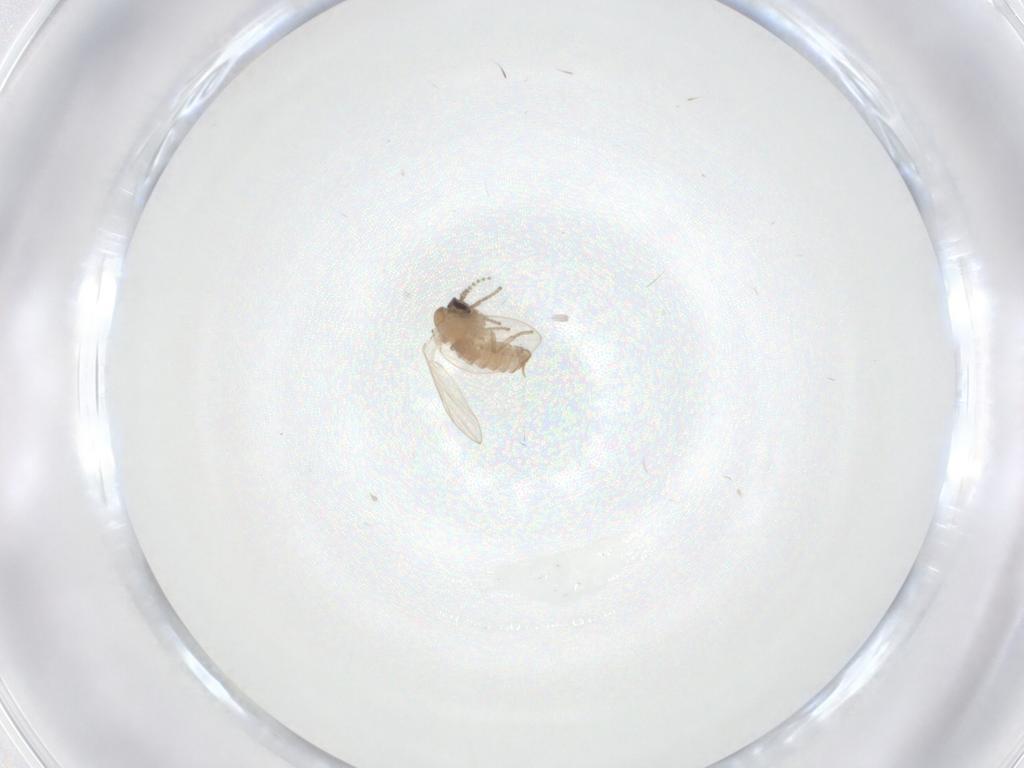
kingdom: Animalia
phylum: Arthropoda
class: Insecta
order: Diptera
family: Psychodidae
